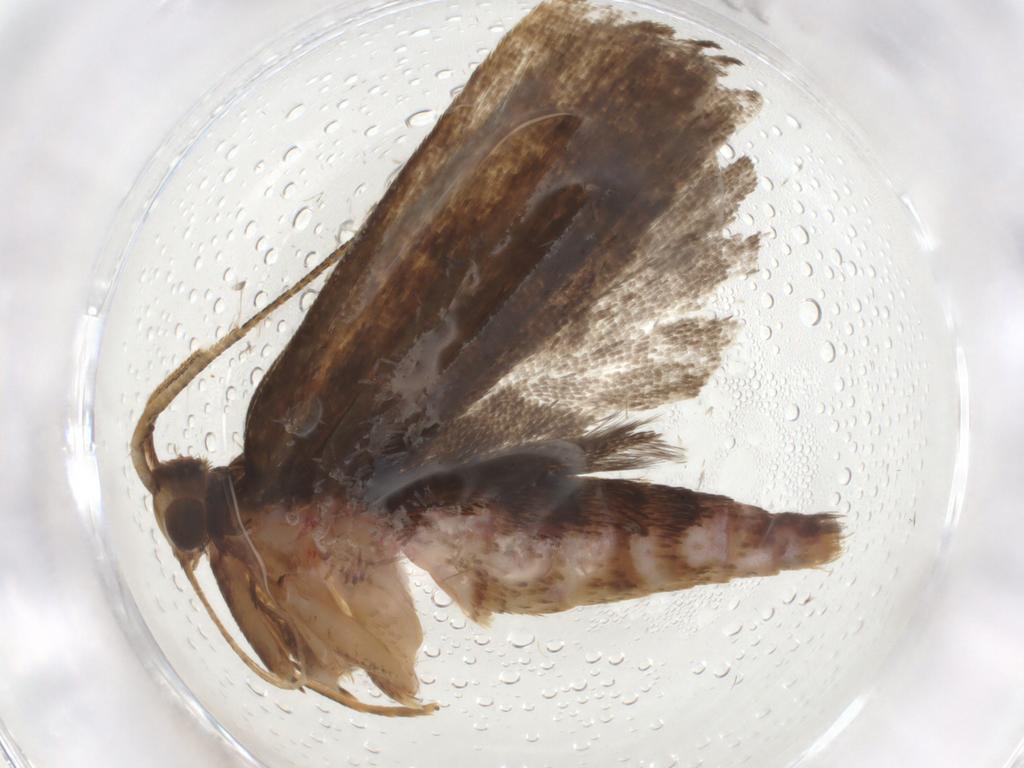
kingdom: Animalia
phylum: Arthropoda
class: Insecta
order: Lepidoptera
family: Autostichidae
